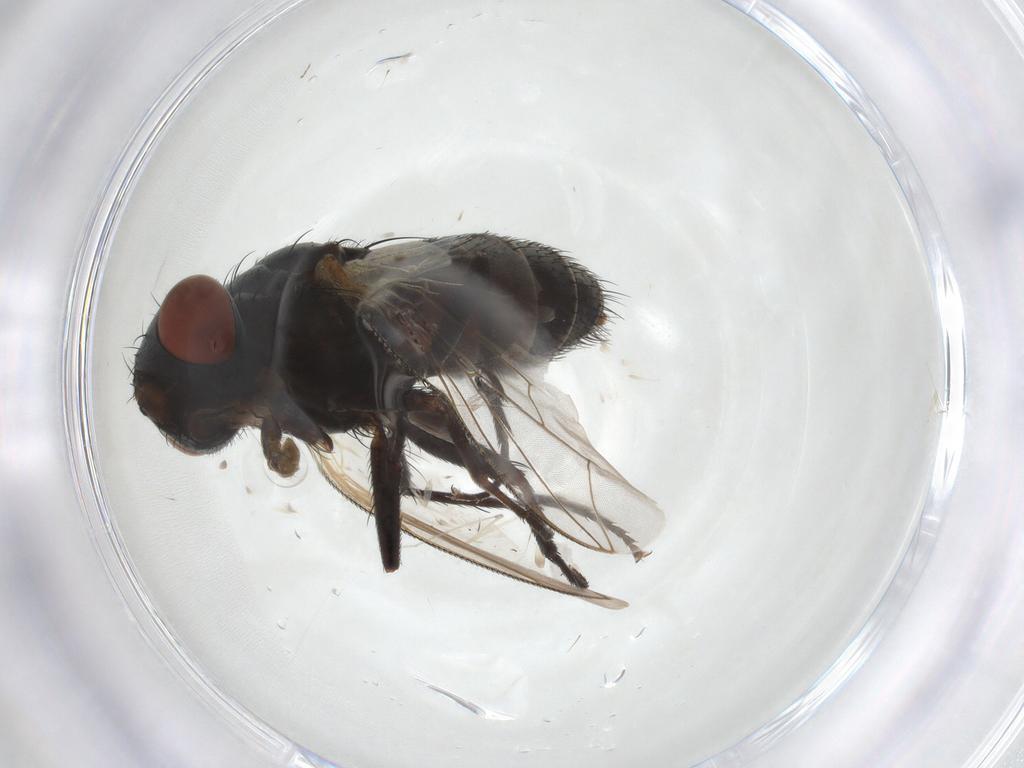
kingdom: Animalia
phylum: Arthropoda
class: Insecta
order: Diptera
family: Sarcophagidae
